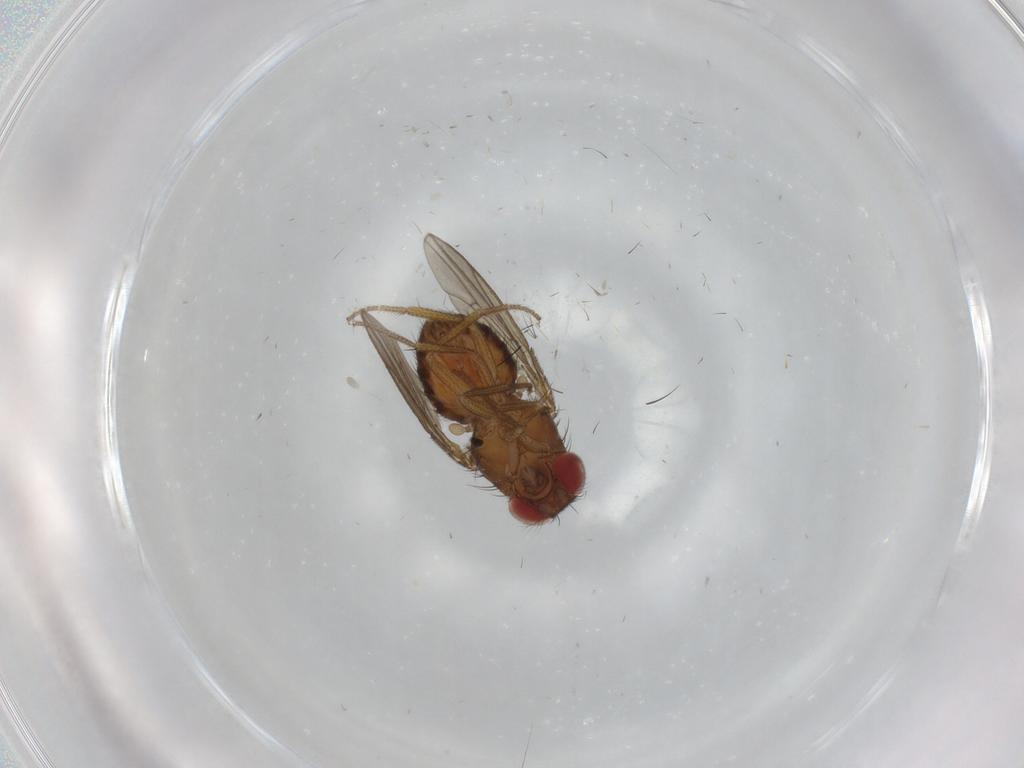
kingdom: Animalia
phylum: Arthropoda
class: Insecta
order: Diptera
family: Drosophilidae
